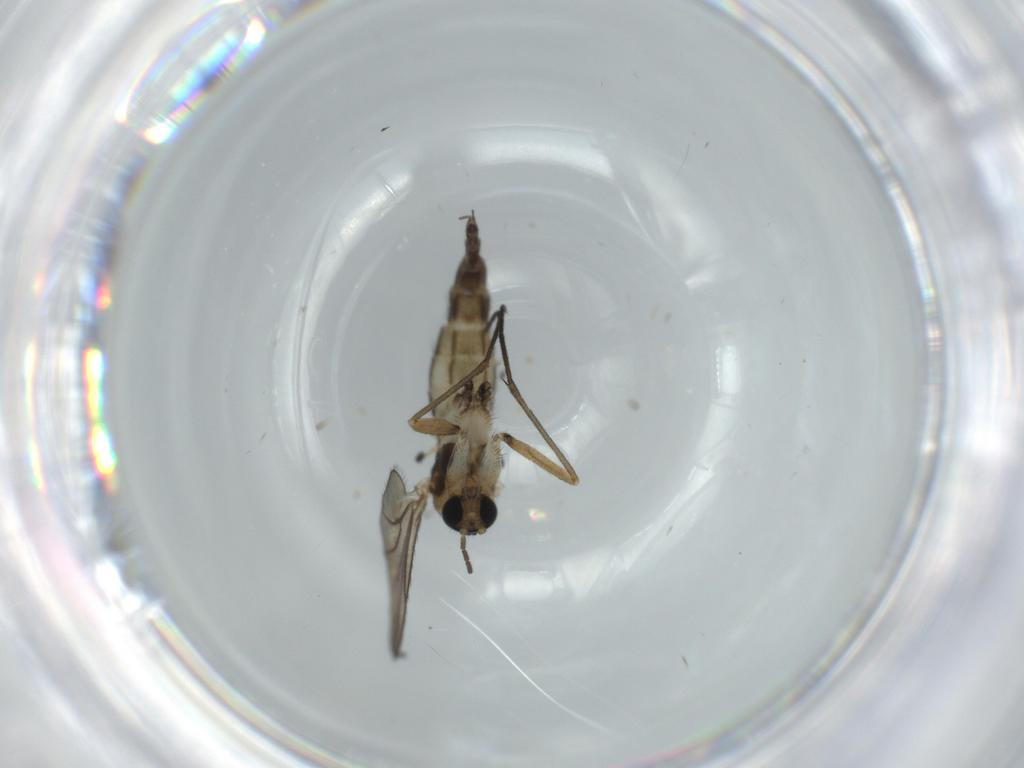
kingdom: Animalia
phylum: Arthropoda
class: Insecta
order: Diptera
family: Sciaridae
